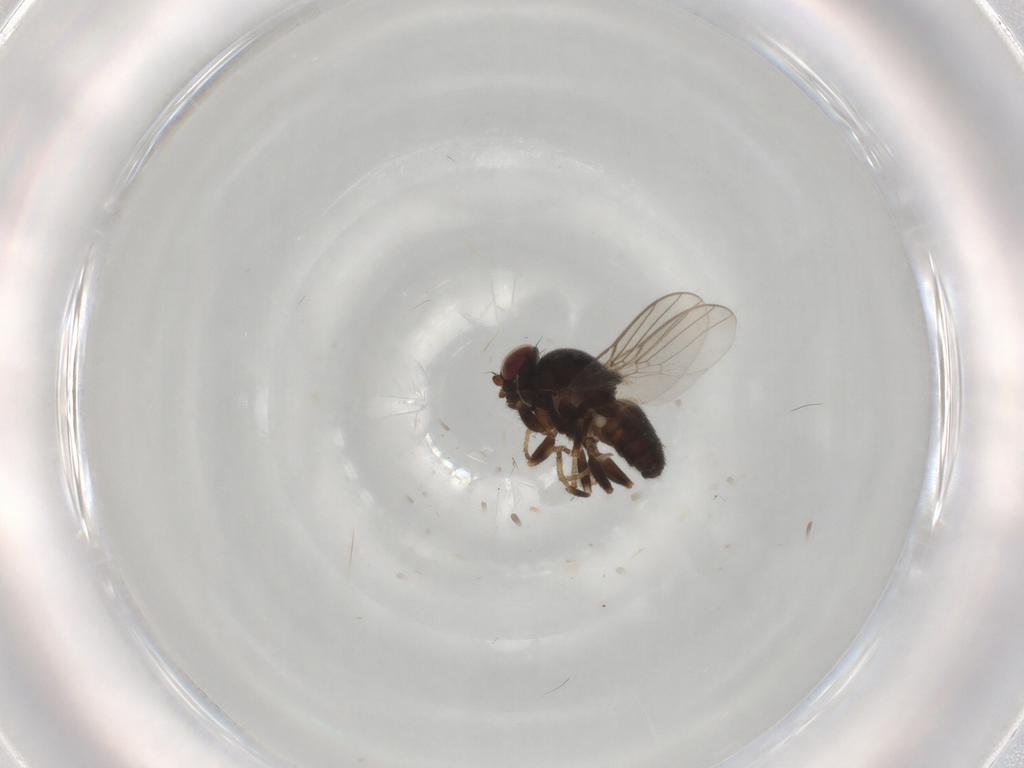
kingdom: Animalia
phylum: Arthropoda
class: Insecta
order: Diptera
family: Chloropidae
